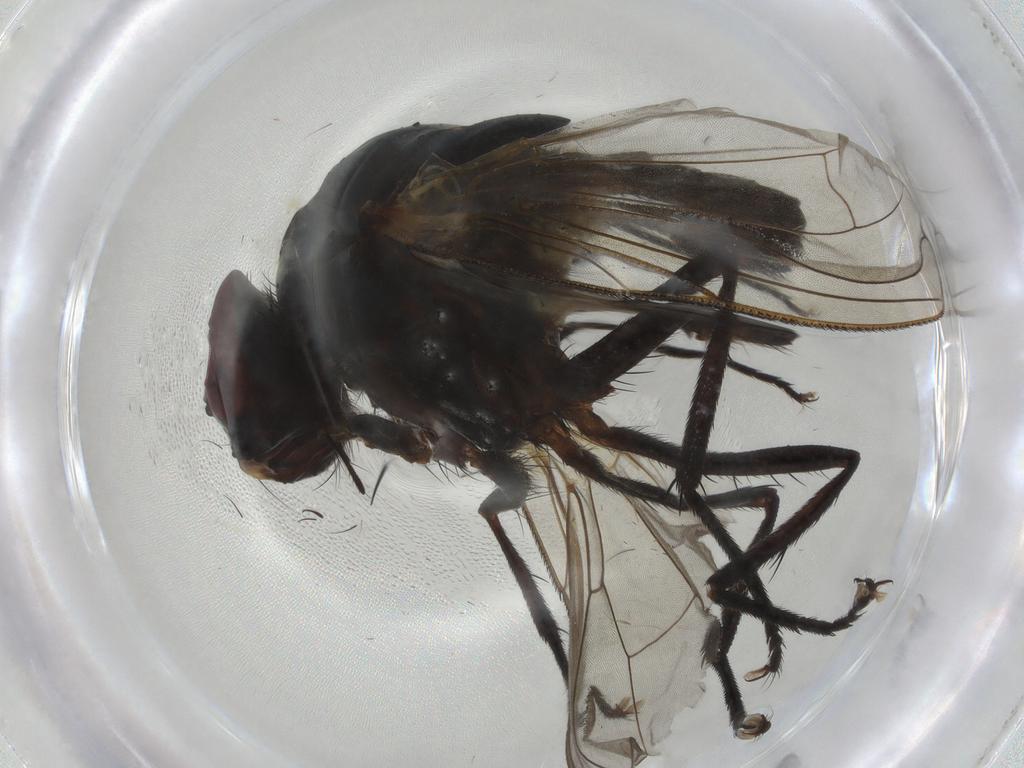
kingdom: Animalia
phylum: Arthropoda
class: Insecta
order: Diptera
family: Anthomyiidae
